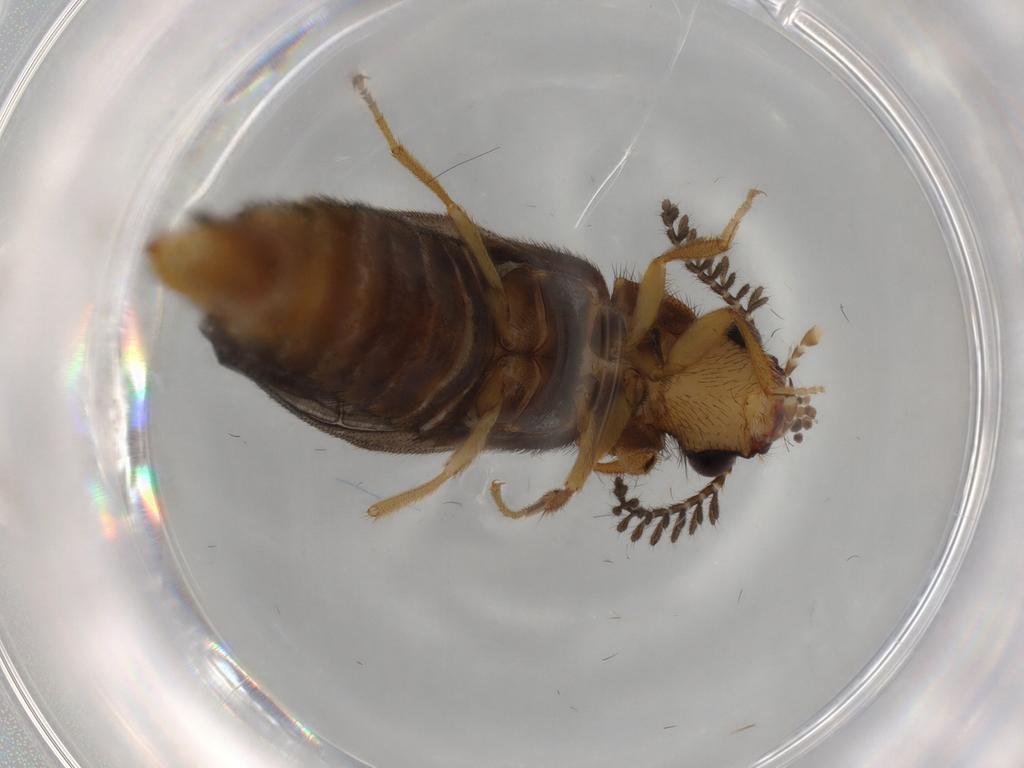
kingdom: Animalia
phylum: Arthropoda
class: Insecta
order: Coleoptera
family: Phengodidae
